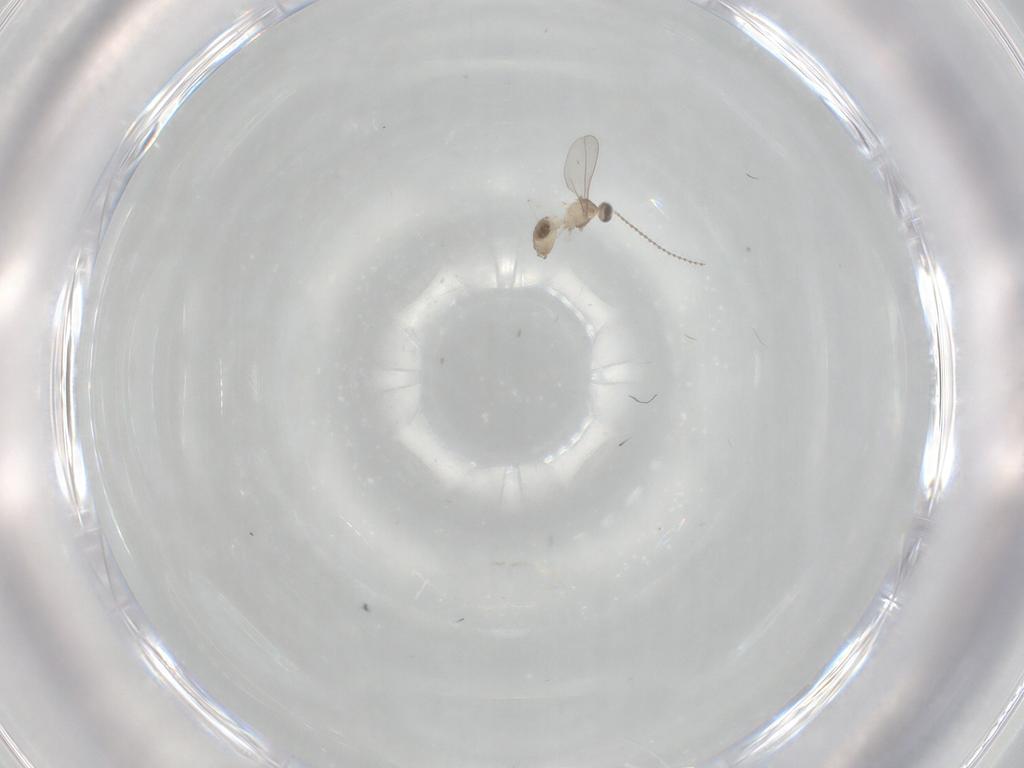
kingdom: Animalia
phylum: Arthropoda
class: Insecta
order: Diptera
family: Cecidomyiidae
